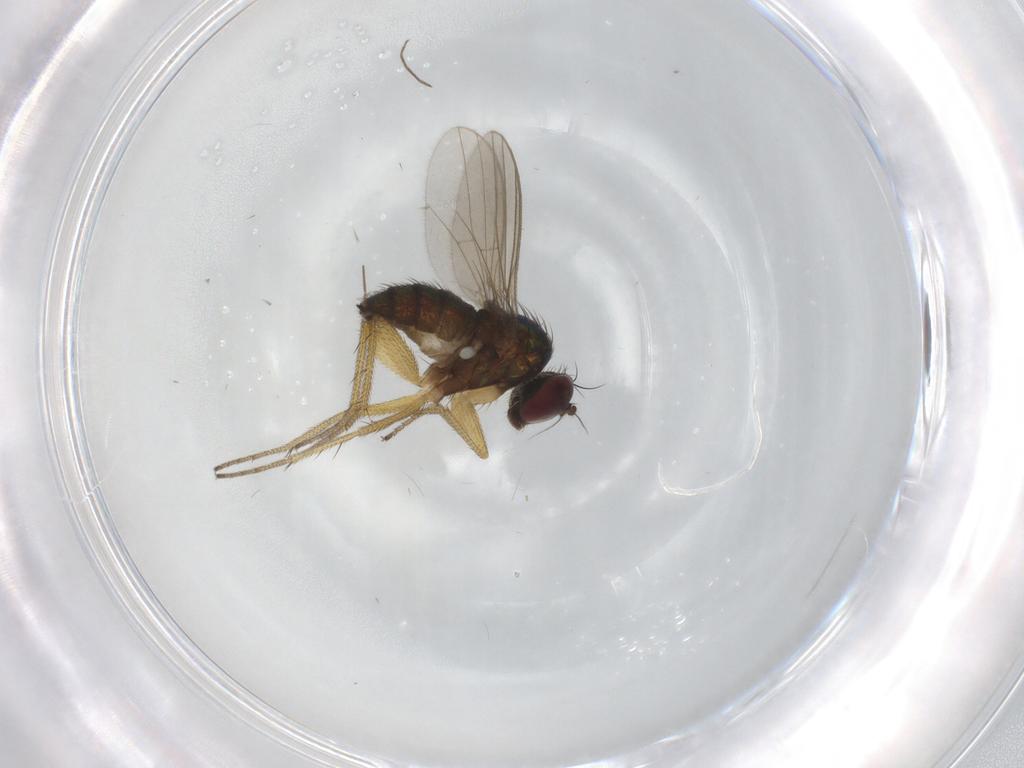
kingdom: Animalia
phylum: Arthropoda
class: Insecta
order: Diptera
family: Dolichopodidae
